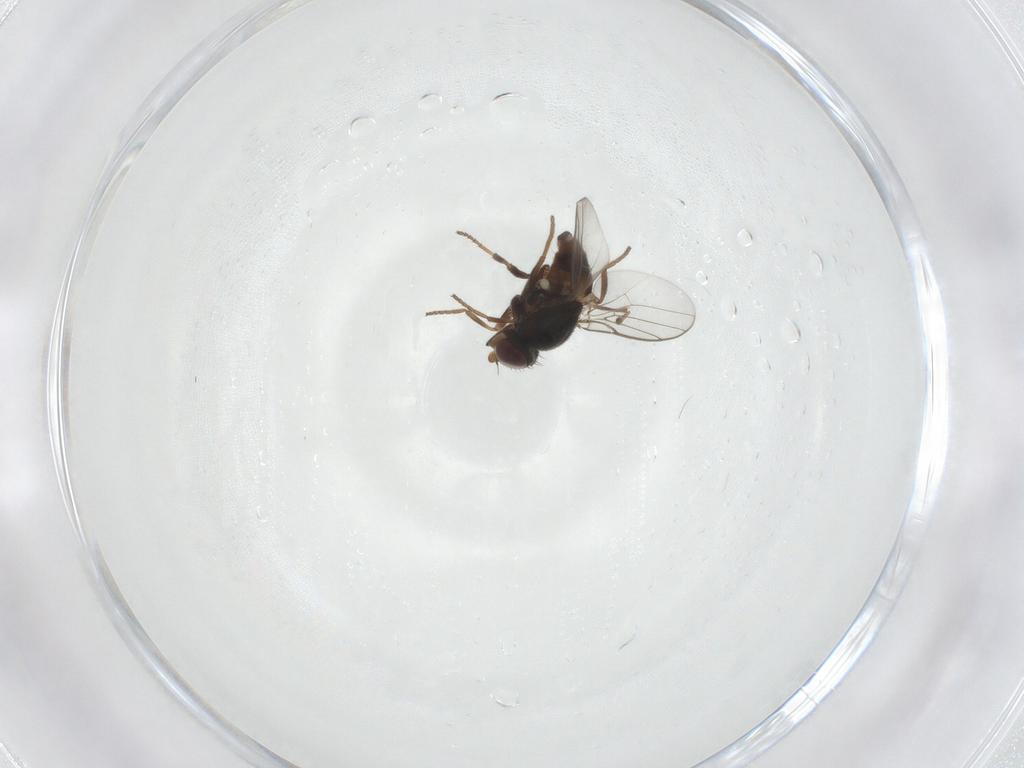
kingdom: Animalia
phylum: Arthropoda
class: Insecta
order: Diptera
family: Chloropidae
